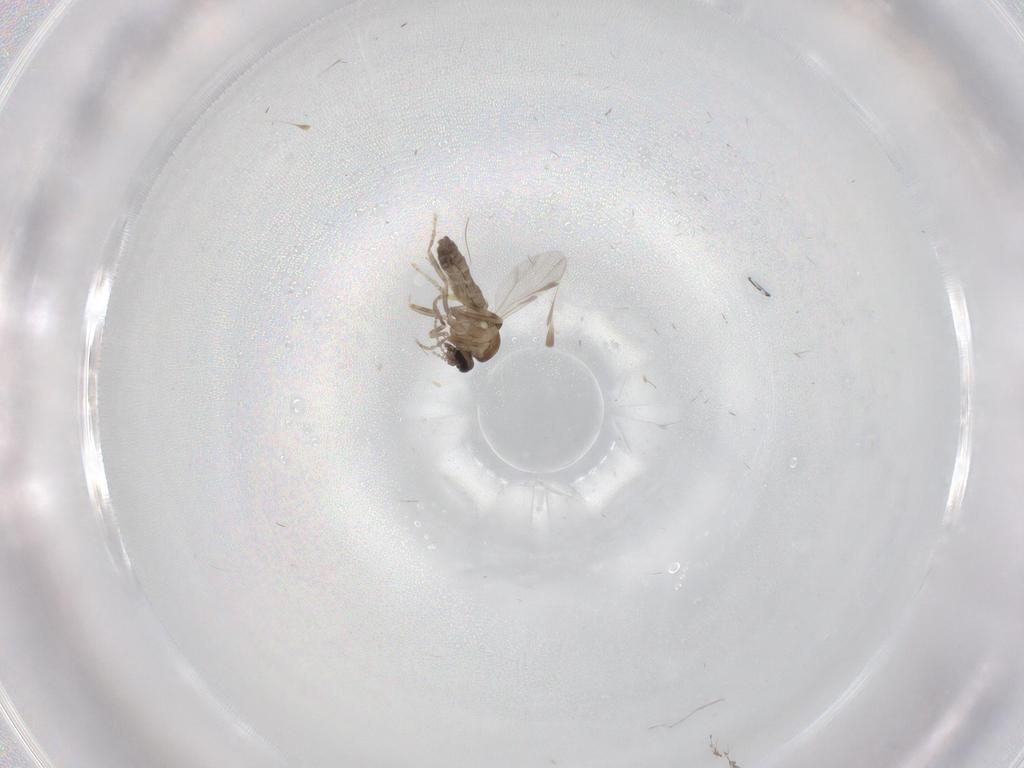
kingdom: Animalia
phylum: Arthropoda
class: Insecta
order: Diptera
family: Ceratopogonidae
